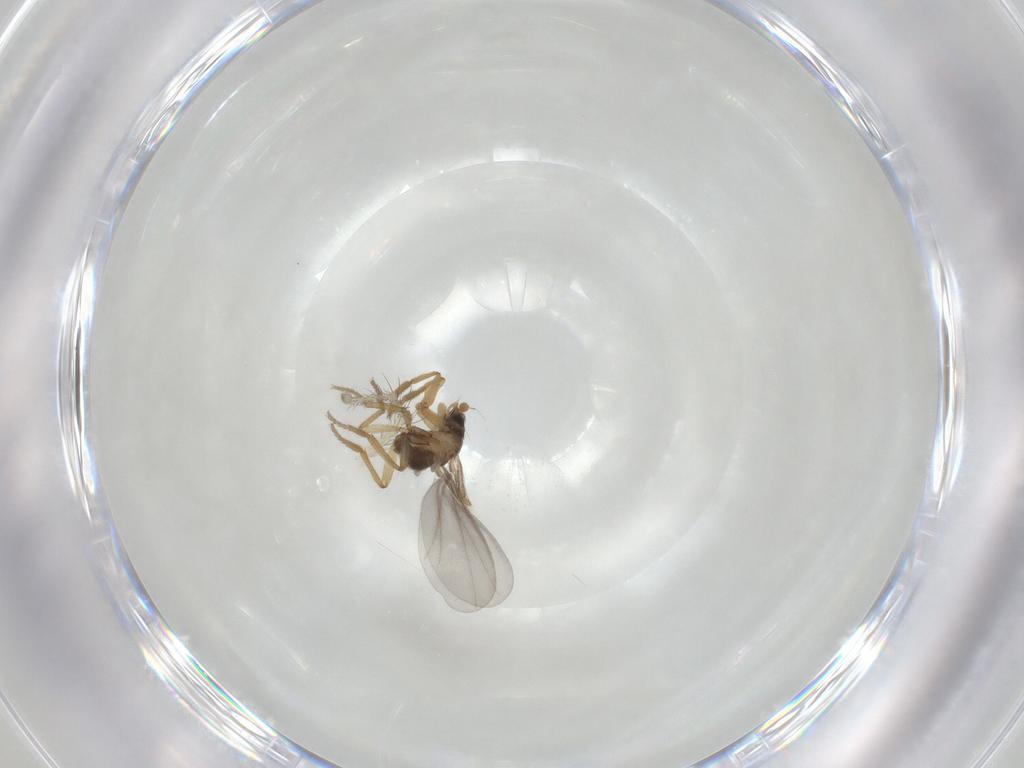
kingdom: Animalia
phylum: Arthropoda
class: Insecta
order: Diptera
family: Phoridae
